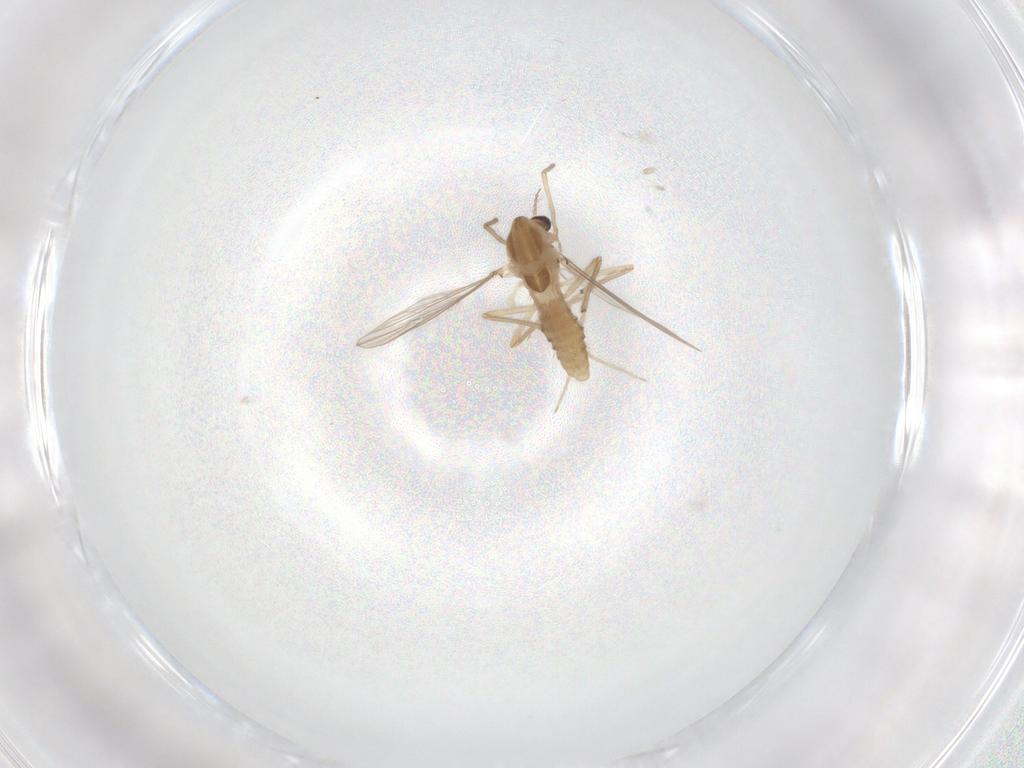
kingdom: Animalia
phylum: Arthropoda
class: Insecta
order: Diptera
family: Chironomidae
